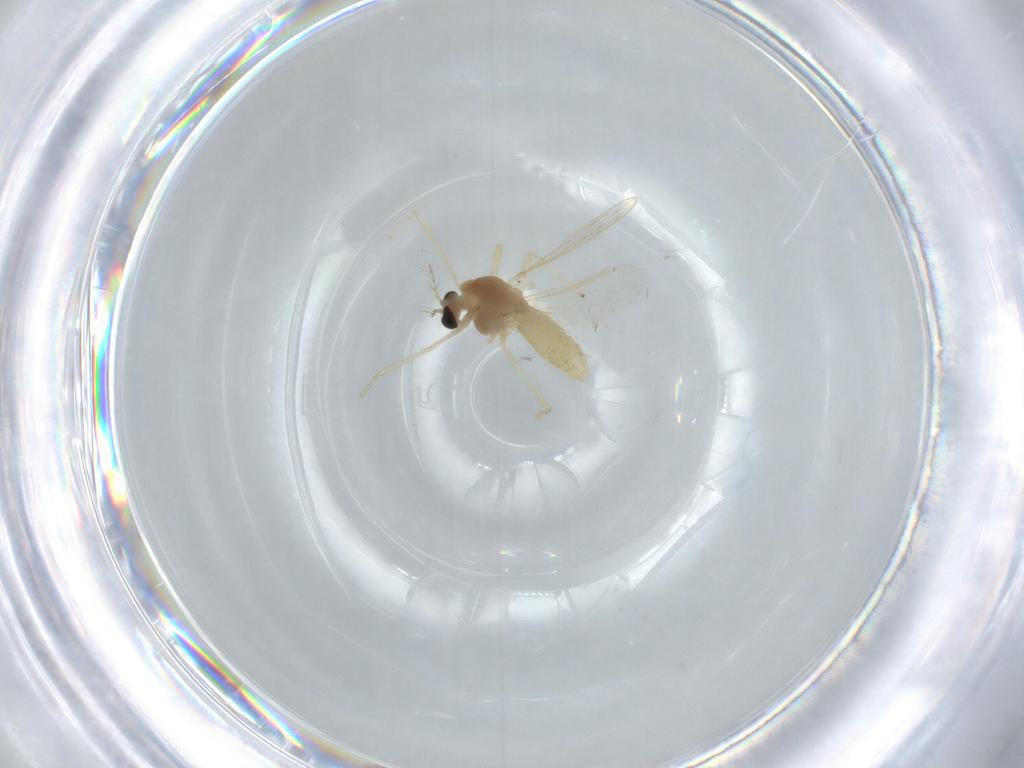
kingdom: Animalia
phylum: Arthropoda
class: Insecta
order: Diptera
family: Chironomidae
